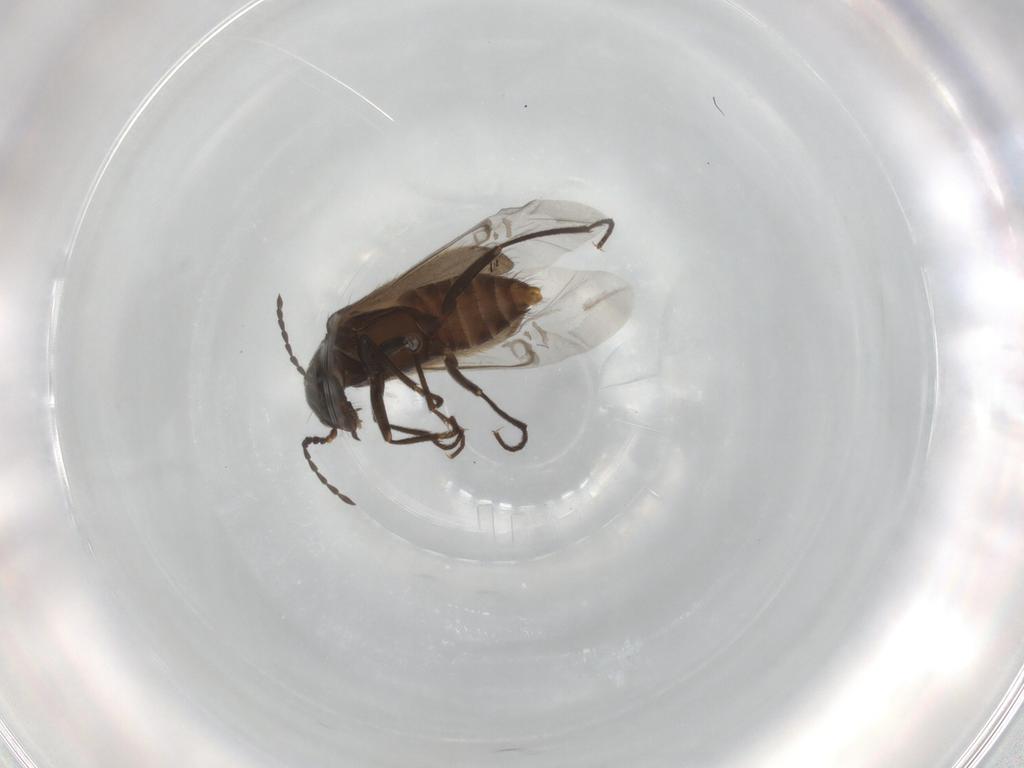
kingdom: Animalia
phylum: Arthropoda
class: Insecta
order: Coleoptera
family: Melyridae
